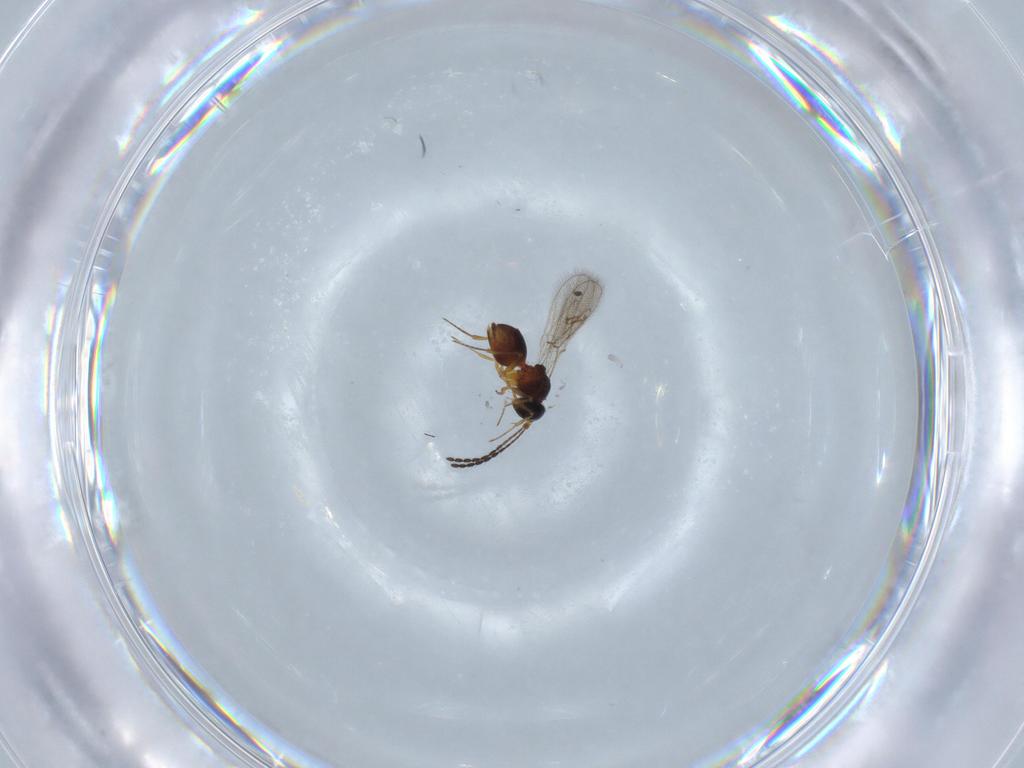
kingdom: Animalia
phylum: Arthropoda
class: Insecta
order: Hymenoptera
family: Figitidae
